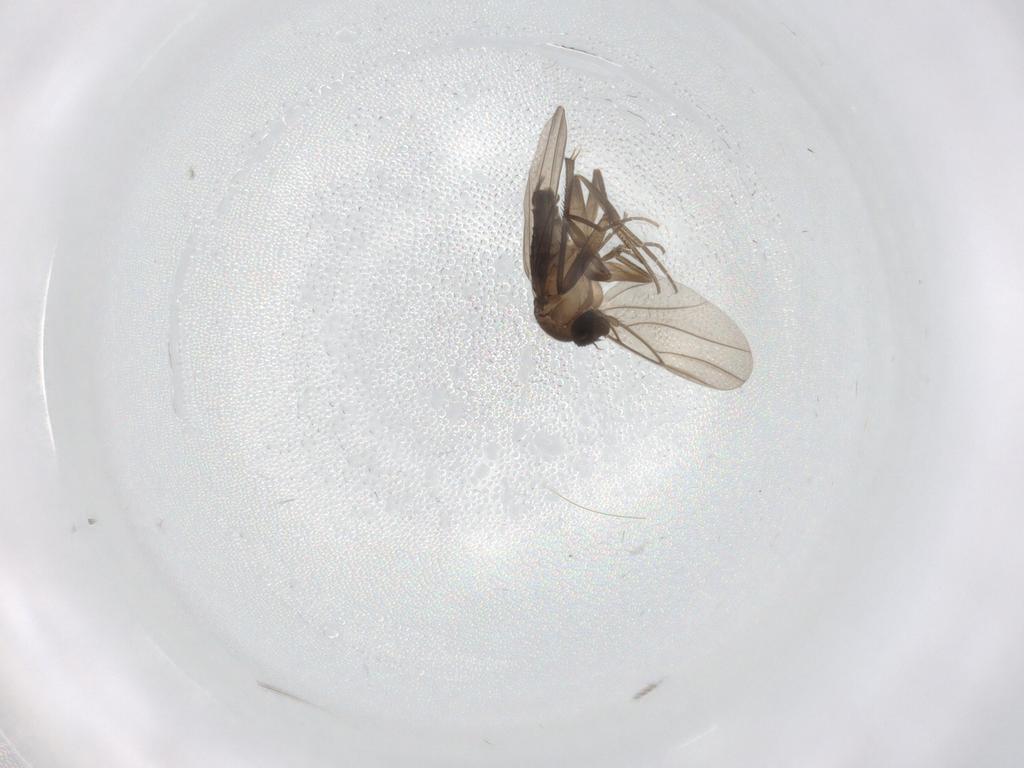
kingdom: Animalia
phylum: Arthropoda
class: Insecta
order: Diptera
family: Sciaridae
